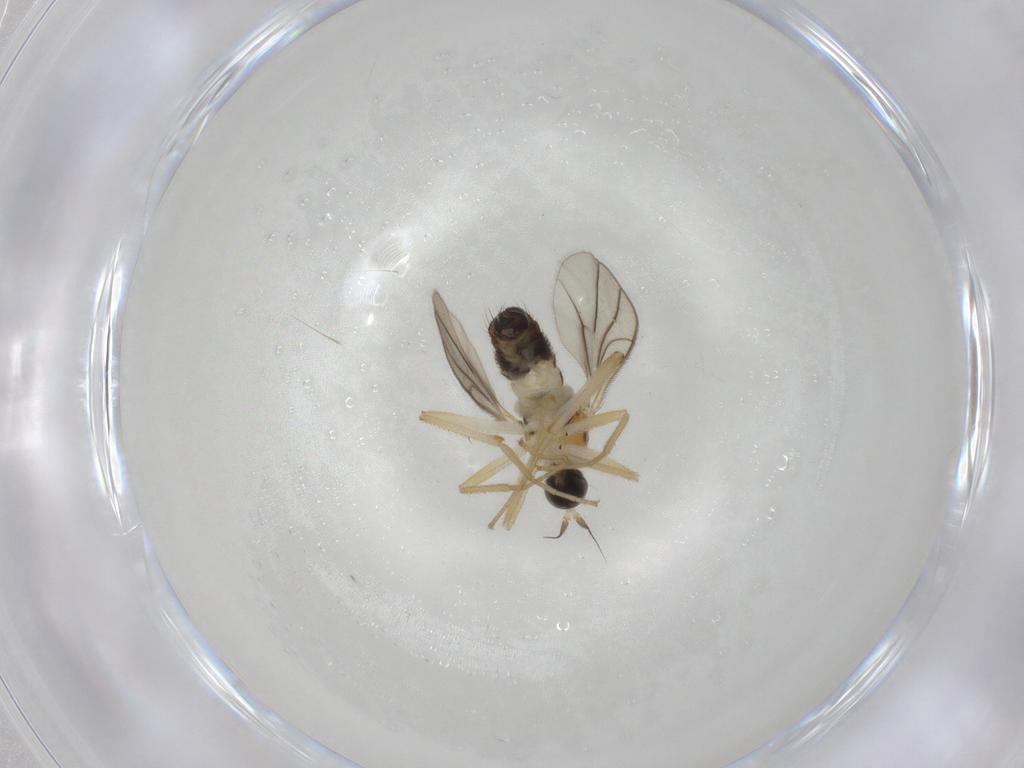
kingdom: Animalia
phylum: Arthropoda
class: Insecta
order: Diptera
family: Hybotidae
